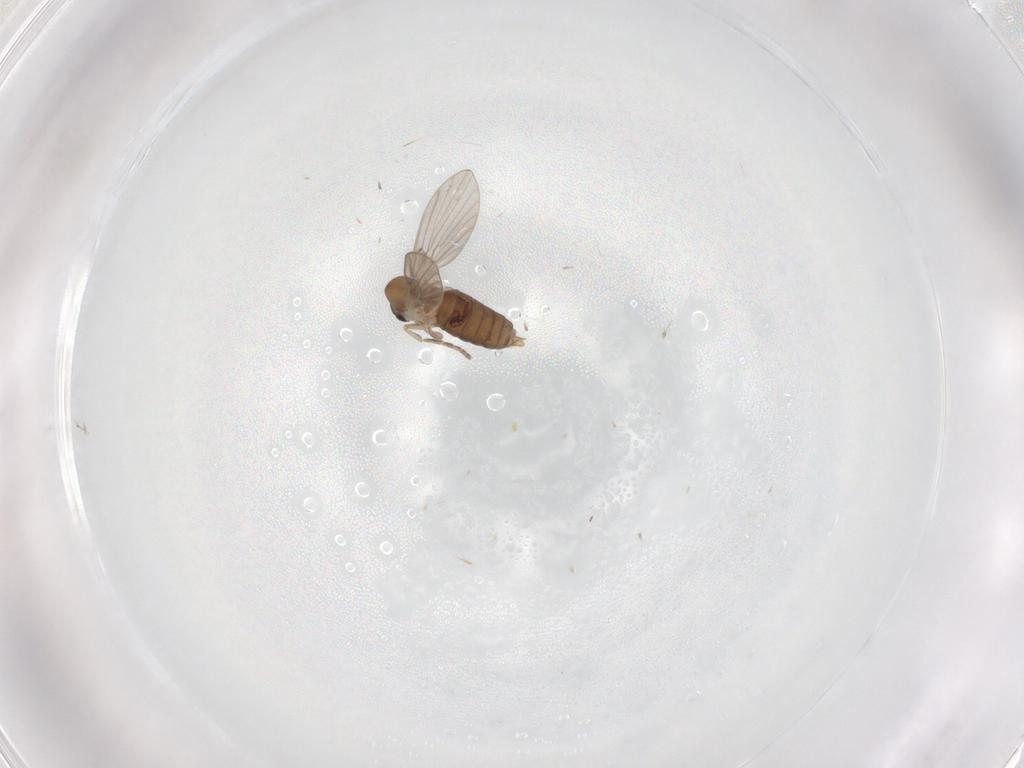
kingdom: Animalia
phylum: Arthropoda
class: Insecta
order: Diptera
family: Calliphoridae
